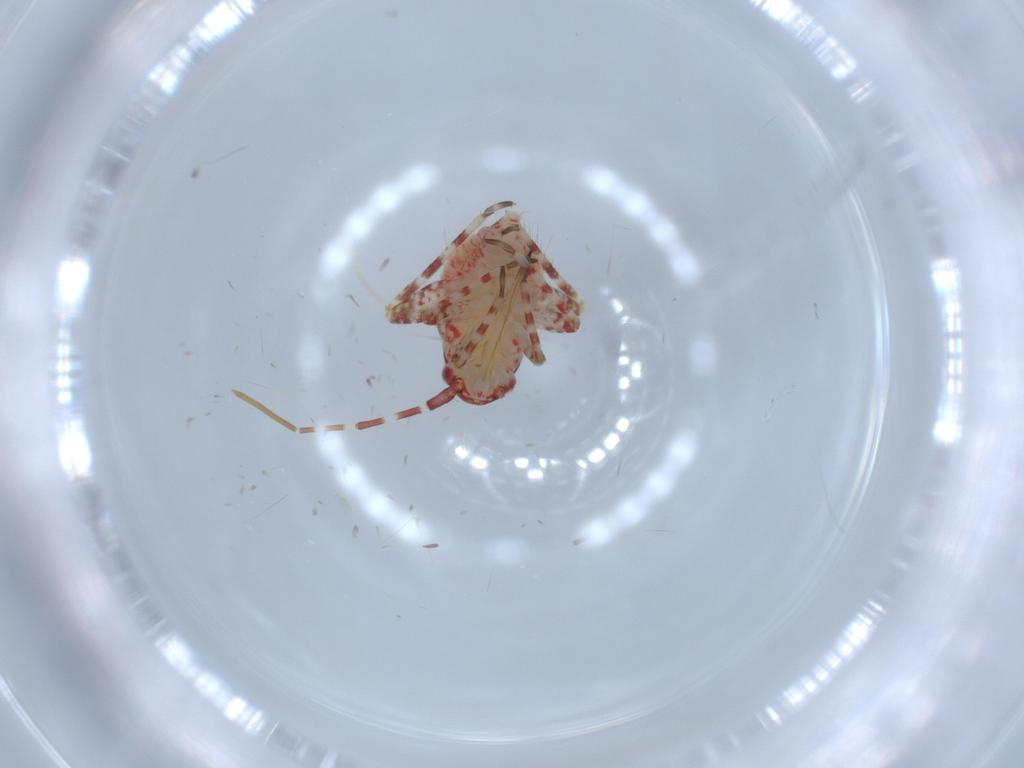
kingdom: Animalia
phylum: Arthropoda
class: Insecta
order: Hemiptera
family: Miridae
